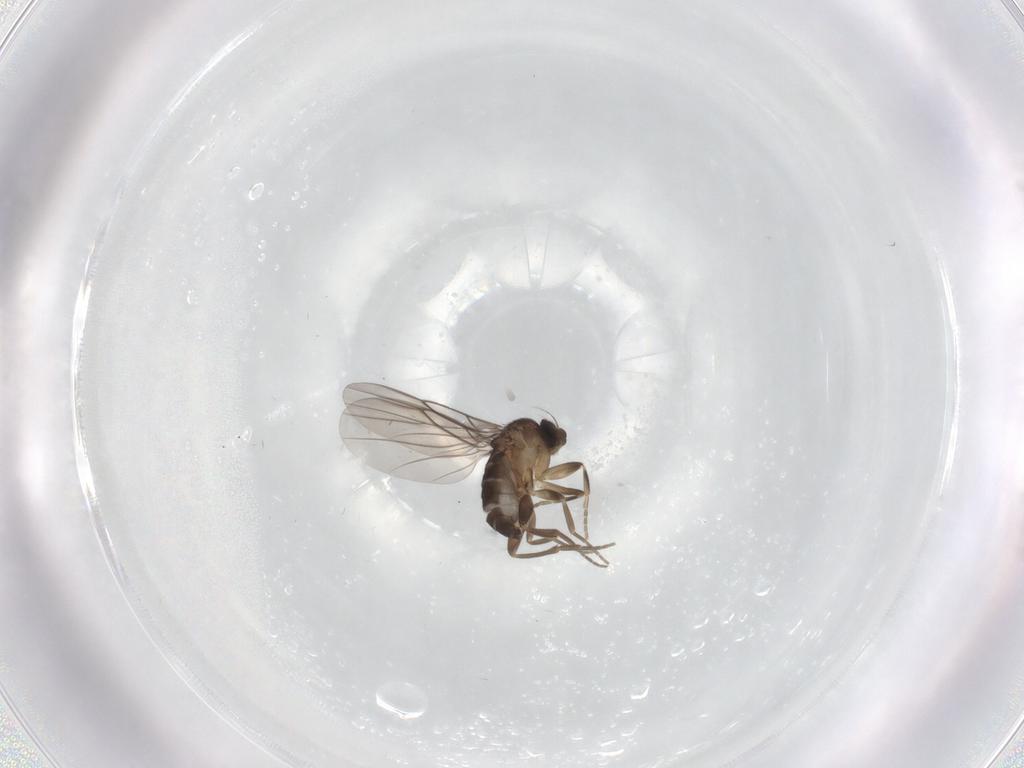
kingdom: Animalia
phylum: Arthropoda
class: Insecta
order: Diptera
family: Phoridae
